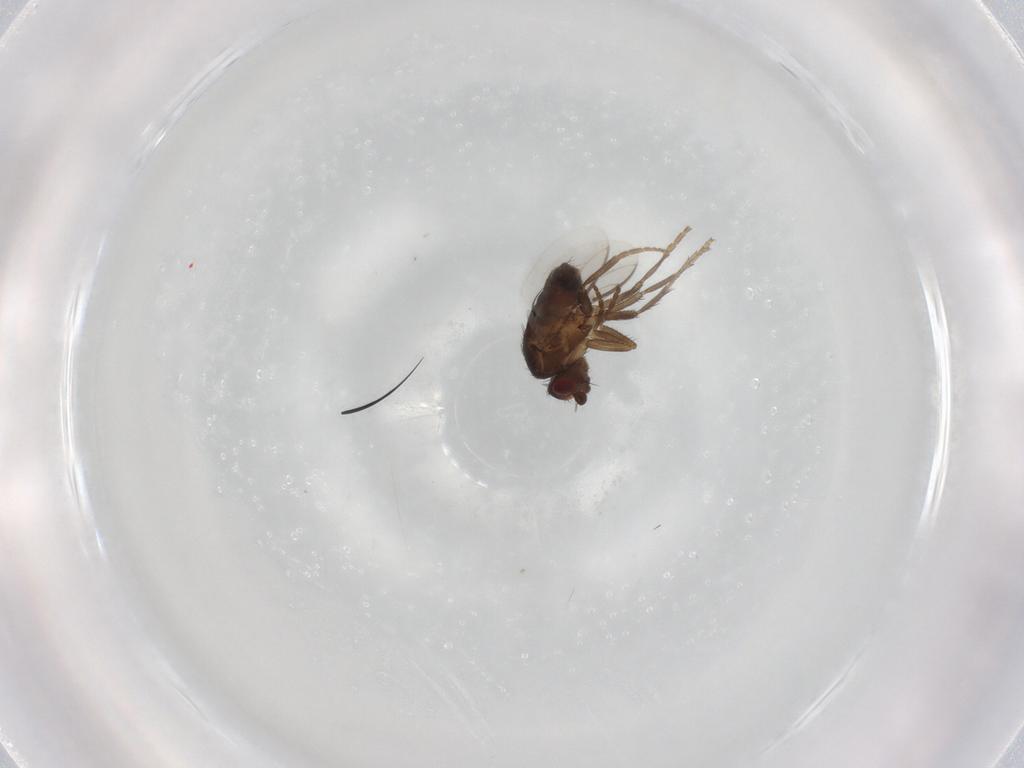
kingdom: Animalia
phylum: Arthropoda
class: Insecta
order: Diptera
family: Sphaeroceridae
